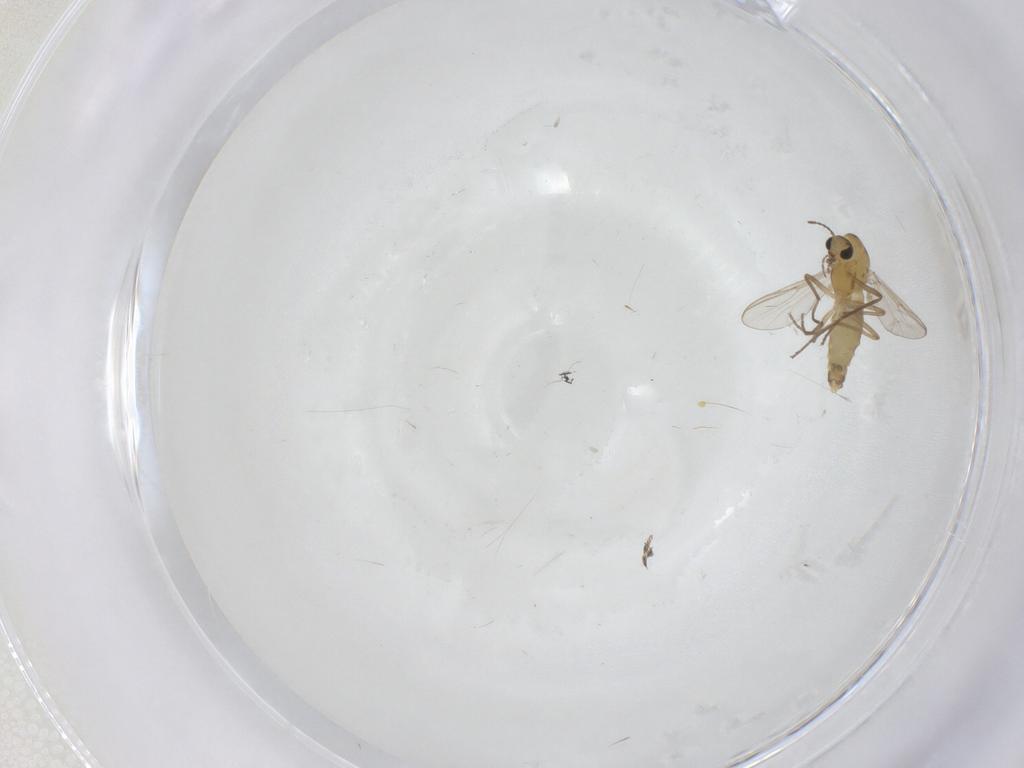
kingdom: Animalia
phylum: Arthropoda
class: Insecta
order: Diptera
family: Chironomidae
